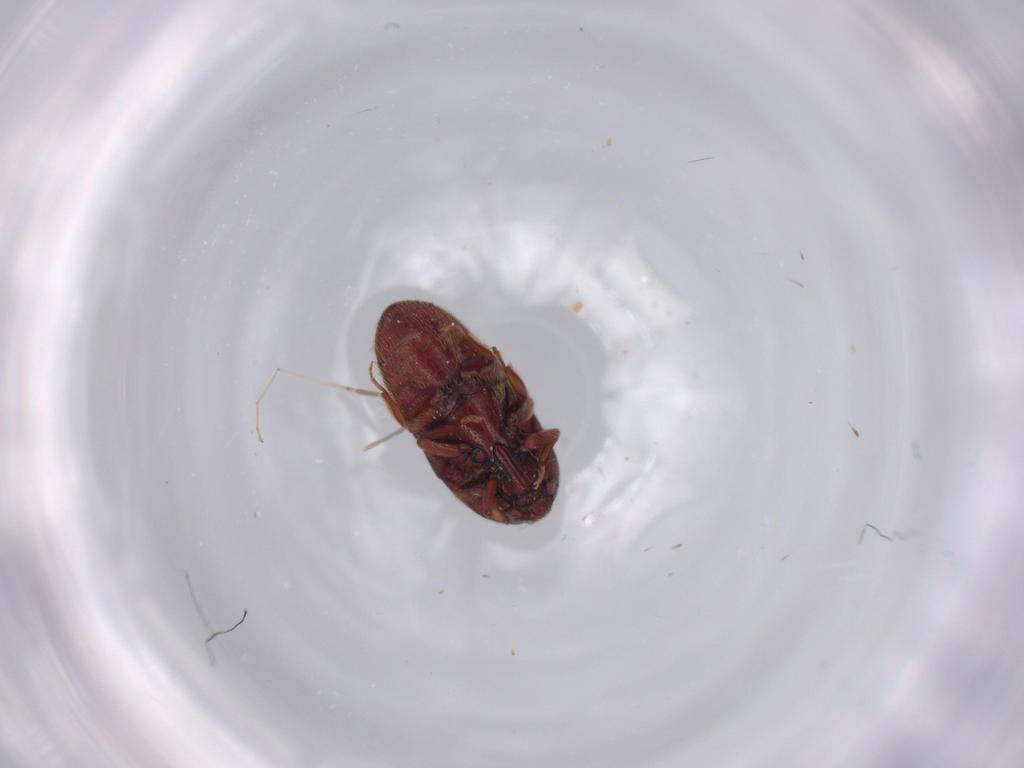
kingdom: Animalia
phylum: Arthropoda
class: Insecta
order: Coleoptera
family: Throscidae
